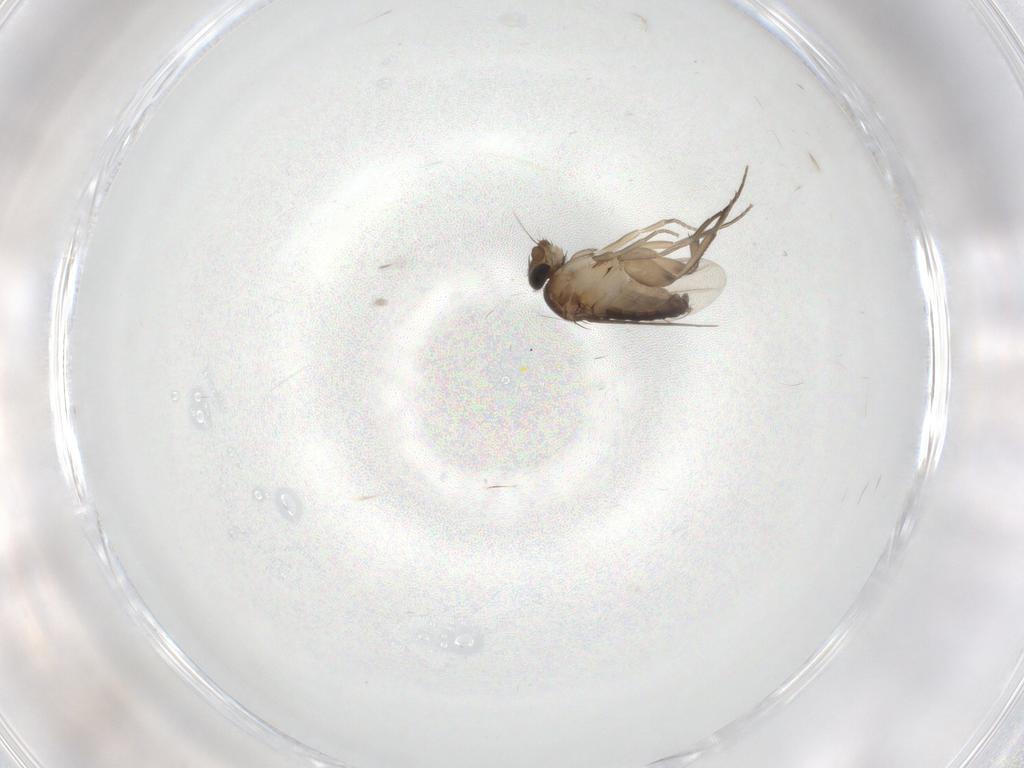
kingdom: Animalia
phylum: Arthropoda
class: Insecta
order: Diptera
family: Phoridae
